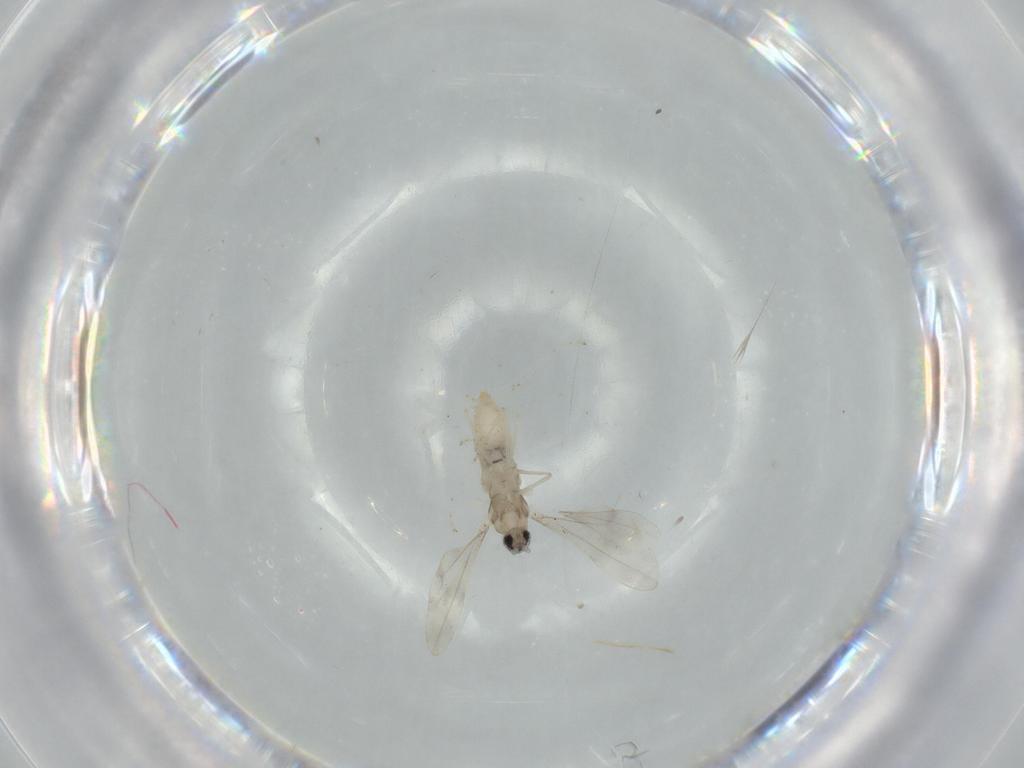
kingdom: Animalia
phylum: Arthropoda
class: Insecta
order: Diptera
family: Cecidomyiidae
